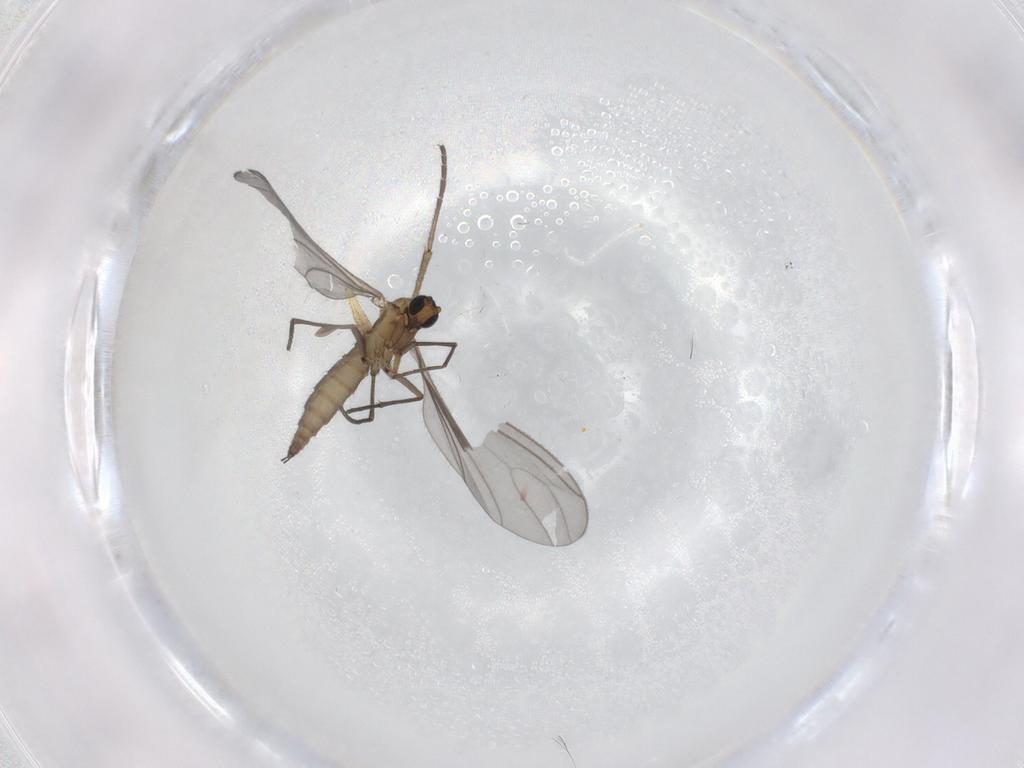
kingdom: Animalia
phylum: Arthropoda
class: Insecta
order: Diptera
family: Sciaridae
